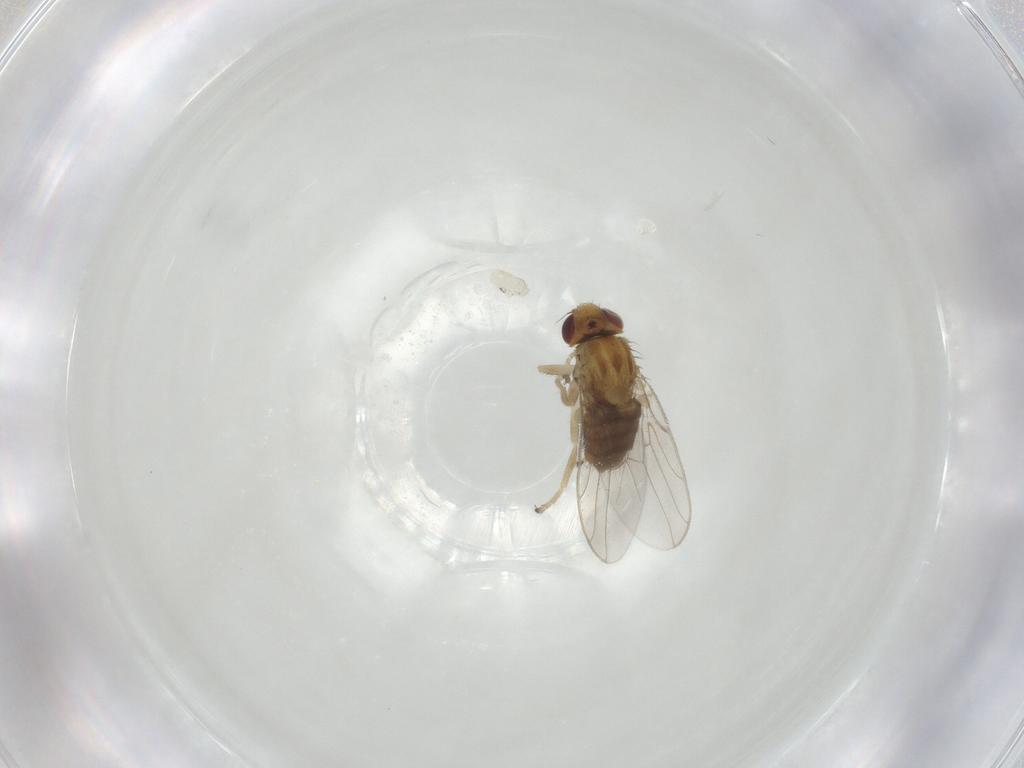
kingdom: Animalia
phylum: Arthropoda
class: Insecta
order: Diptera
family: Chloropidae
